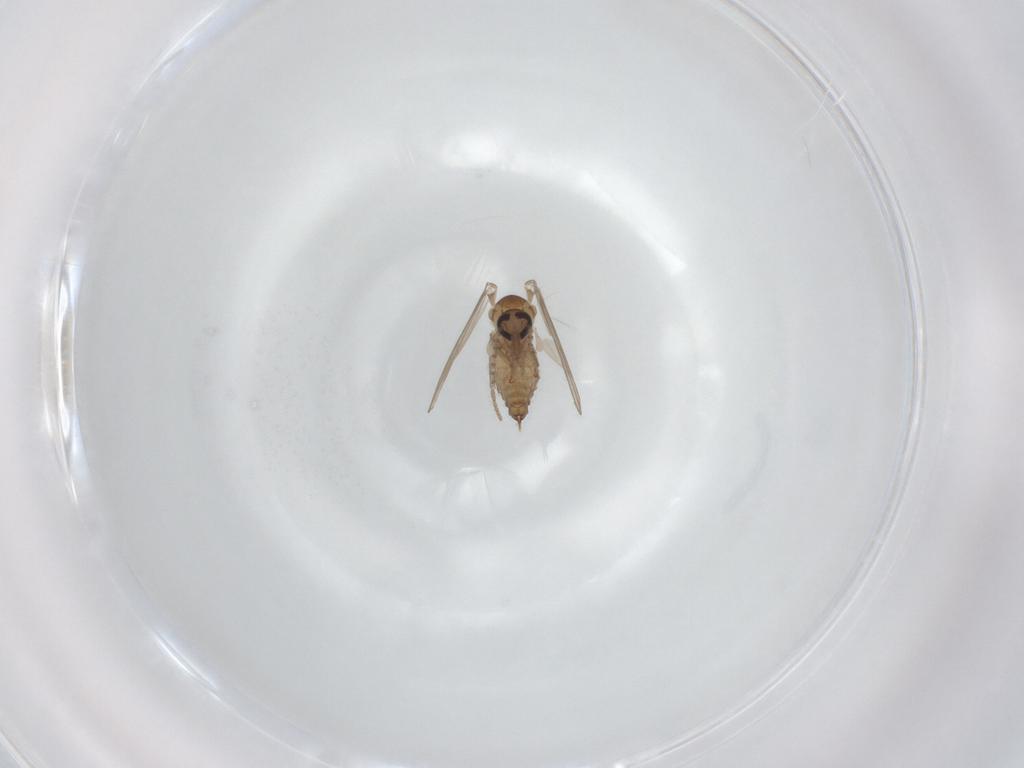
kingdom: Animalia
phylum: Arthropoda
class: Insecta
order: Diptera
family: Psychodidae
